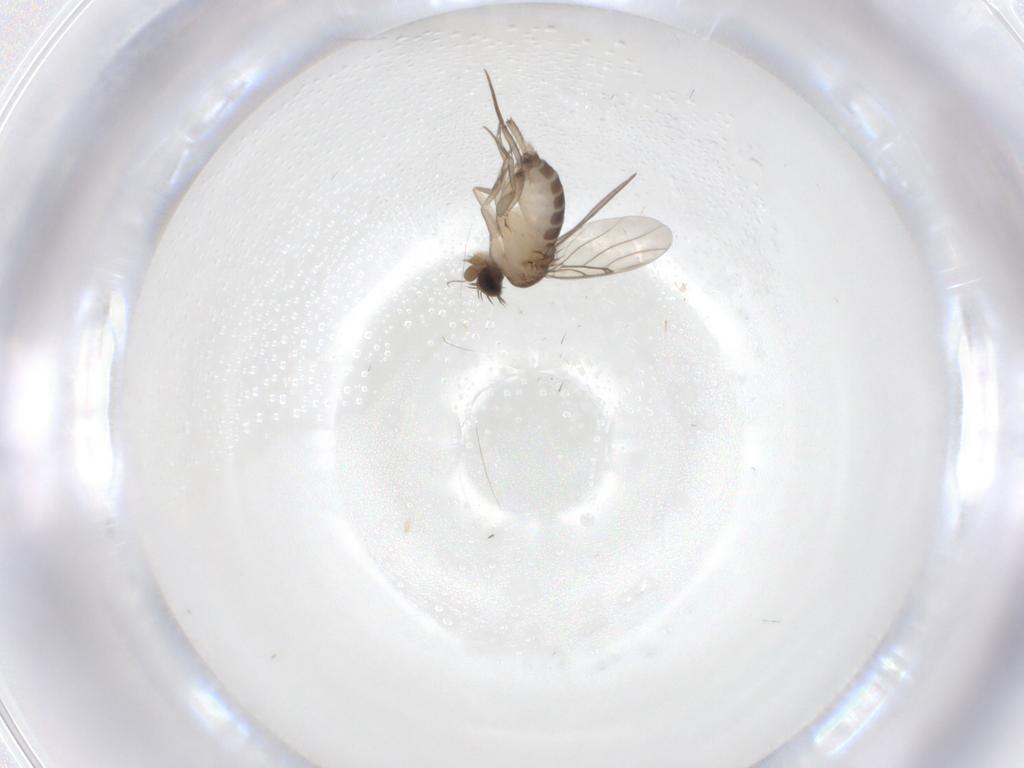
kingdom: Animalia
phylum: Arthropoda
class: Insecta
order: Diptera
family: Phoridae
